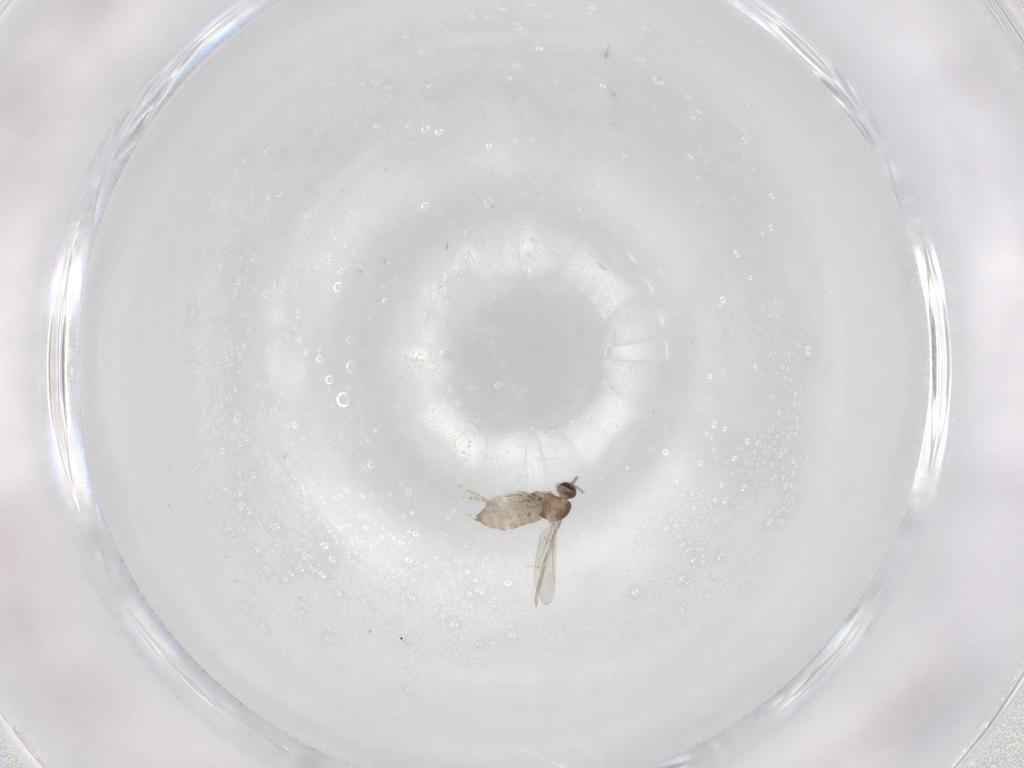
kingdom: Animalia
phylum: Arthropoda
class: Insecta
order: Diptera
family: Cecidomyiidae
